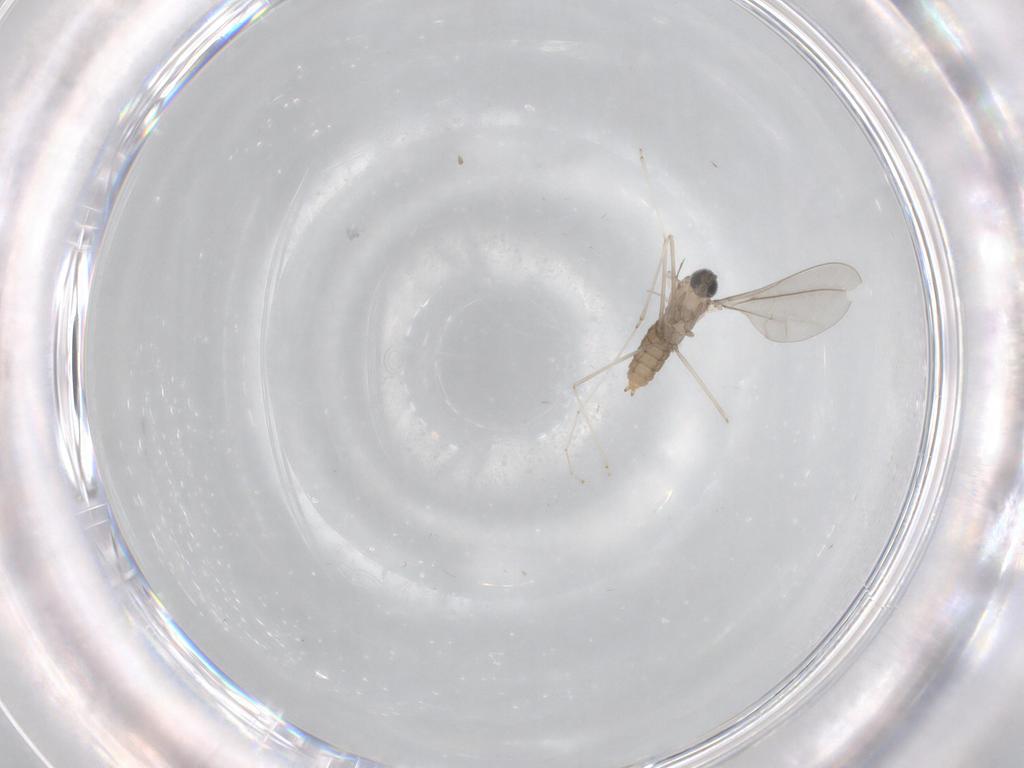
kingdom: Animalia
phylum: Arthropoda
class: Insecta
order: Diptera
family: Cecidomyiidae
